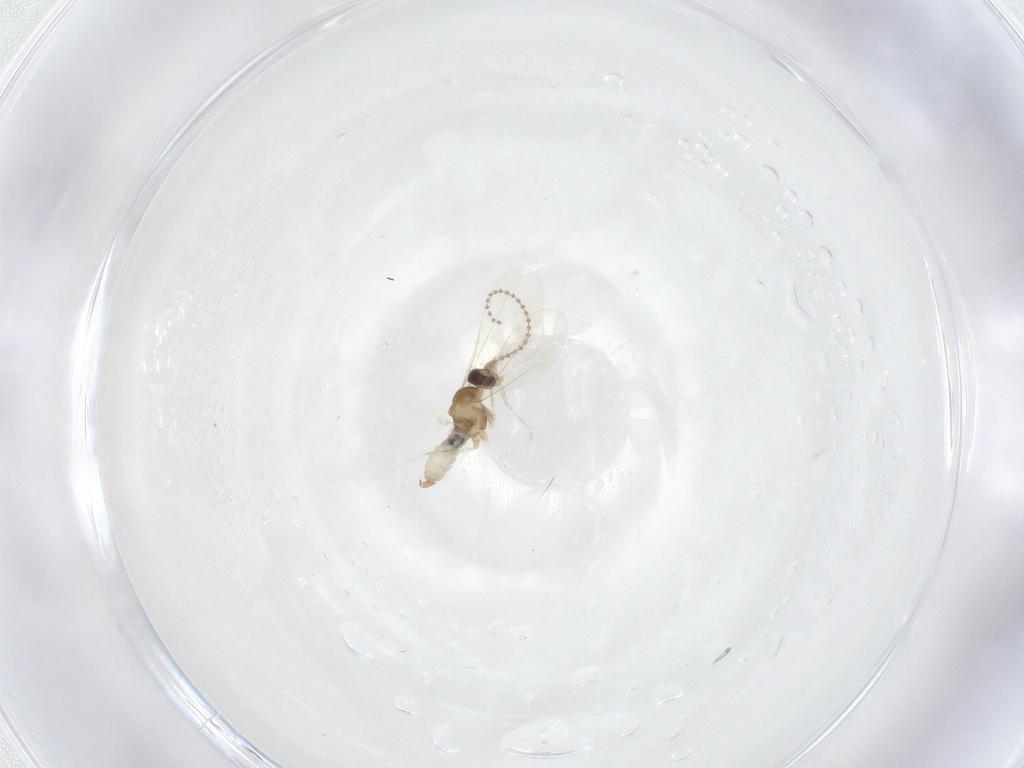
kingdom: Animalia
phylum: Arthropoda
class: Insecta
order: Diptera
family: Cecidomyiidae
